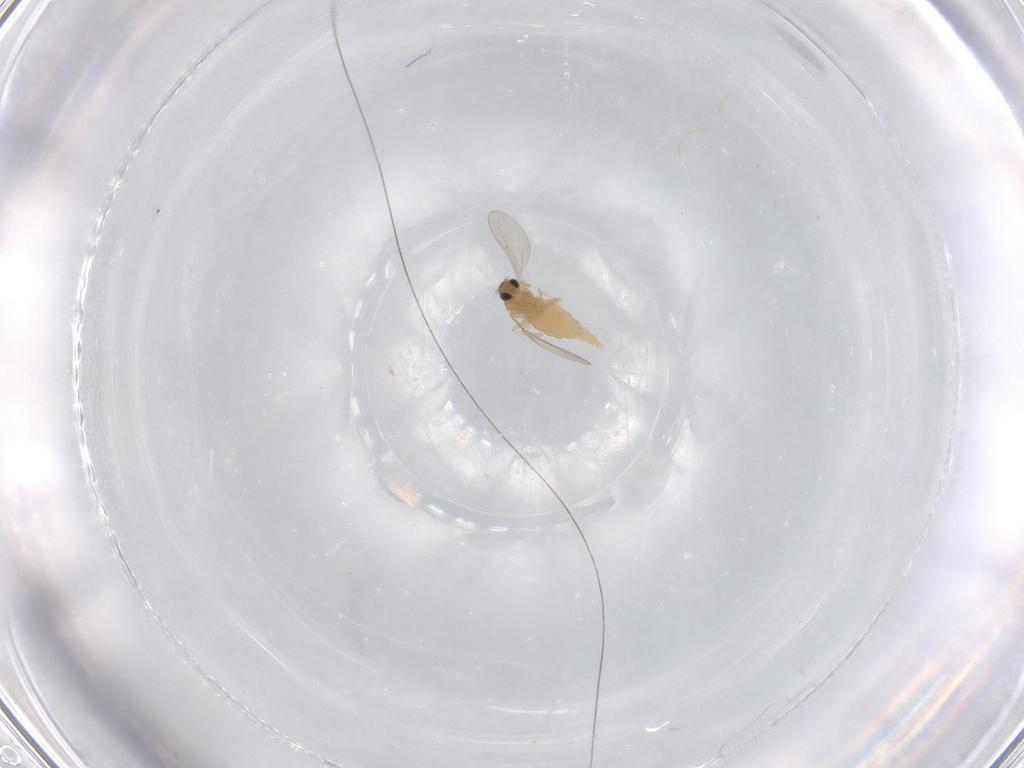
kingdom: Animalia
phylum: Arthropoda
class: Insecta
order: Diptera
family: Cecidomyiidae
